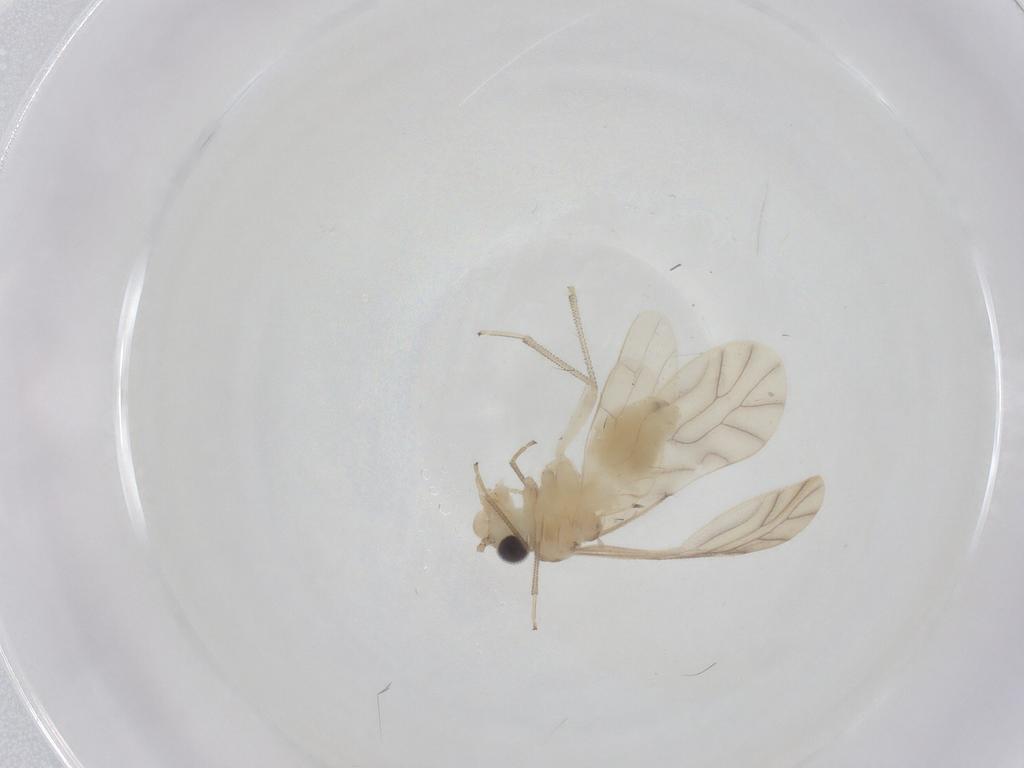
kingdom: Animalia
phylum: Arthropoda
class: Insecta
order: Psocodea
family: Caeciliusidae
